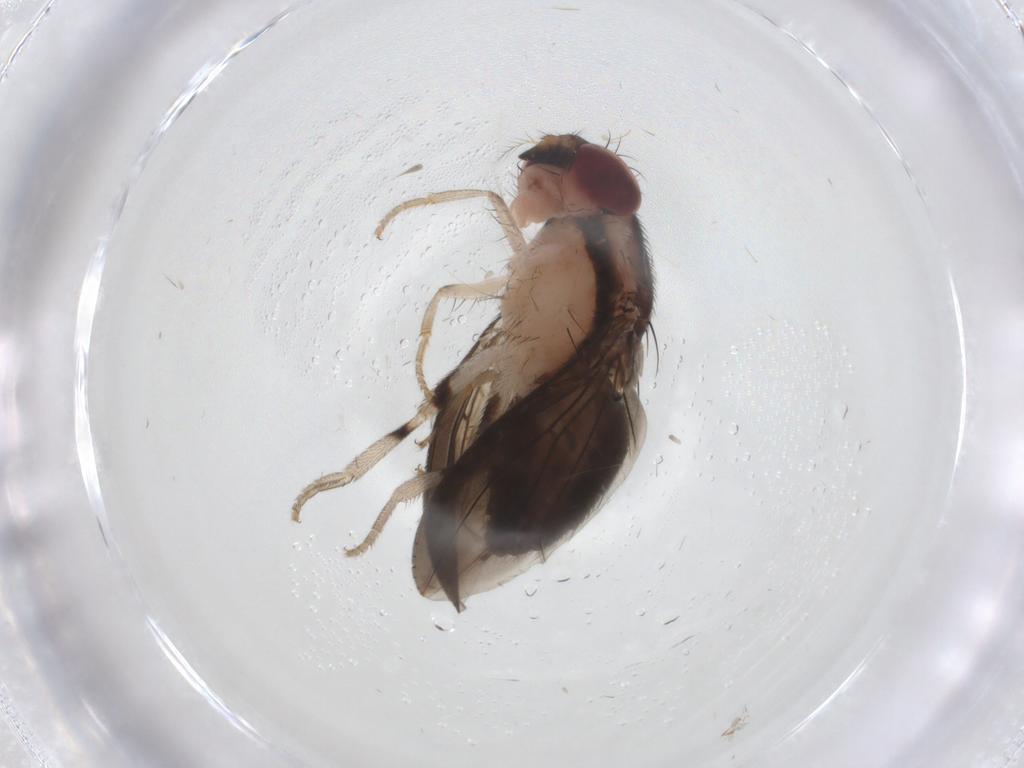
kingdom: Animalia
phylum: Arthropoda
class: Insecta
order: Diptera
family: Drosophilidae
